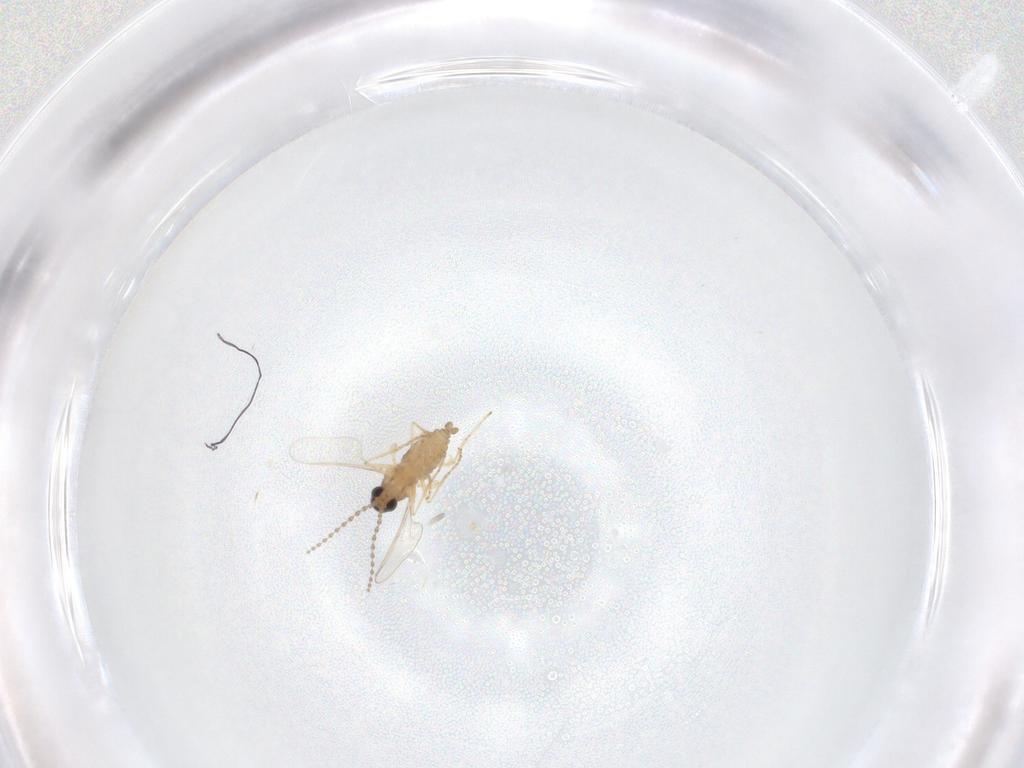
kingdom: Animalia
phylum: Arthropoda
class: Insecta
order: Diptera
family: Cecidomyiidae
